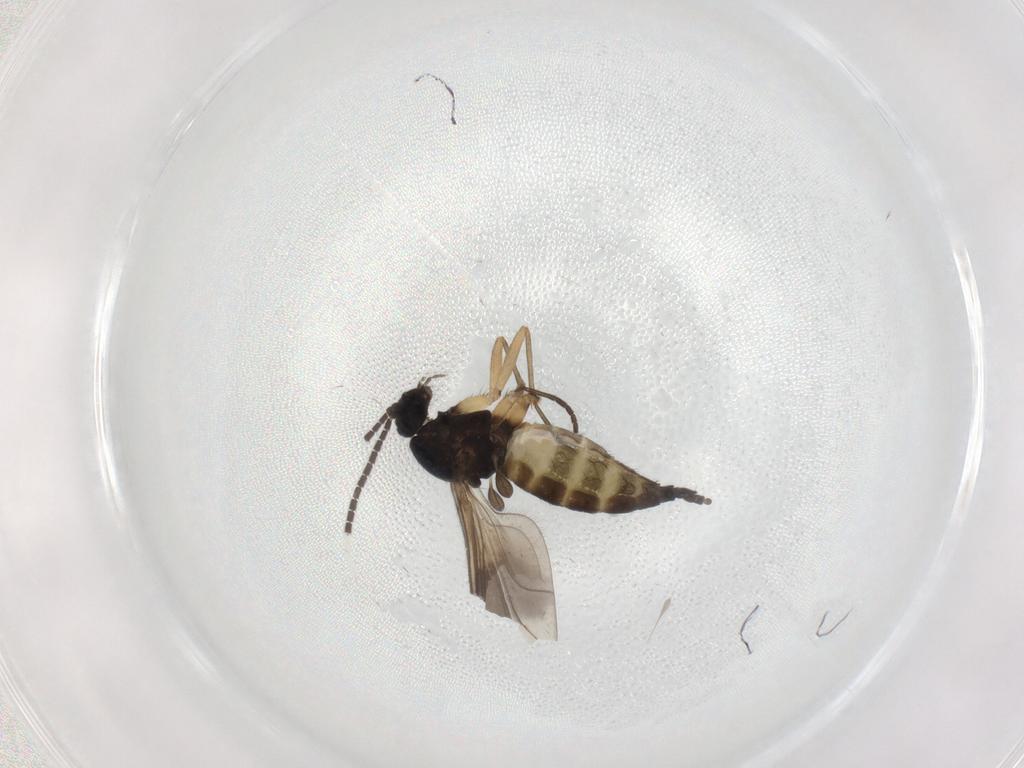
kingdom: Animalia
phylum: Arthropoda
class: Insecta
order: Diptera
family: Sciaridae
